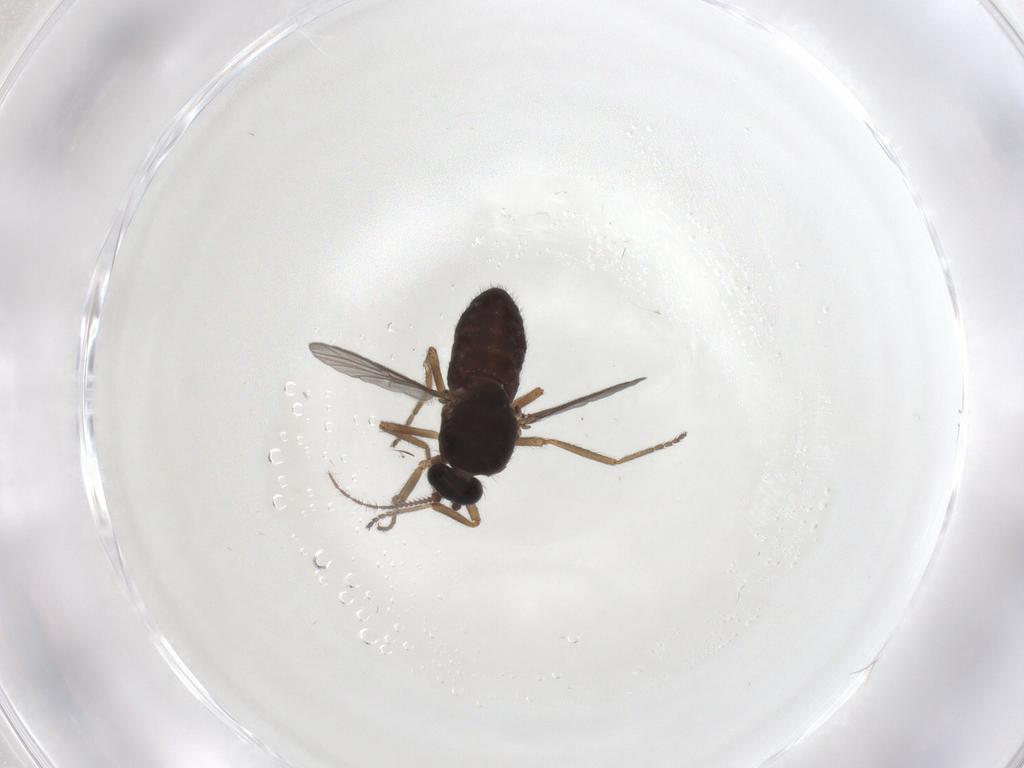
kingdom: Animalia
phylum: Arthropoda
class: Insecta
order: Diptera
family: Ceratopogonidae
